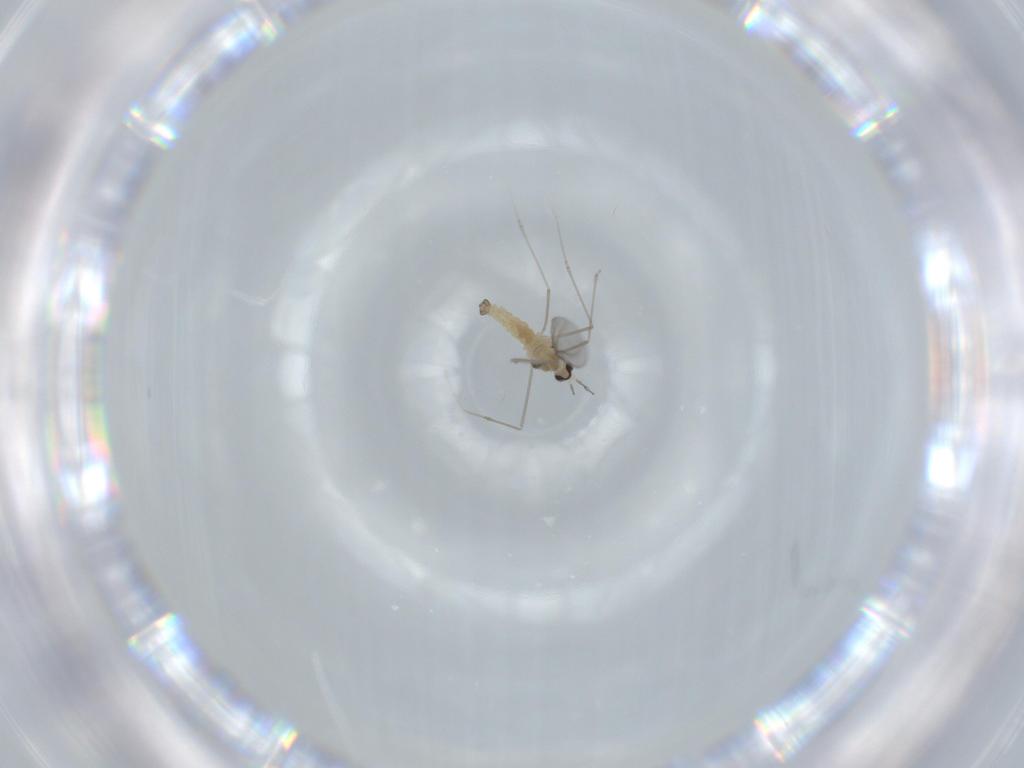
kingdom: Animalia
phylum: Arthropoda
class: Insecta
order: Diptera
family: Cecidomyiidae
